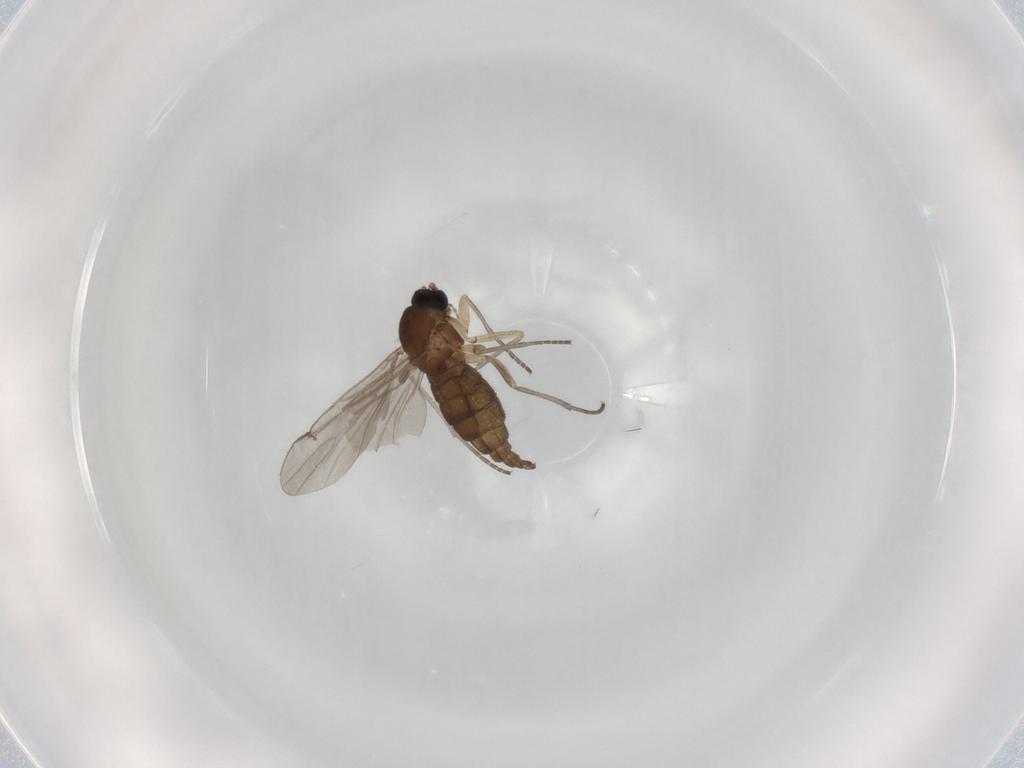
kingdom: Animalia
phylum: Arthropoda
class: Insecta
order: Diptera
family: Sciaridae
